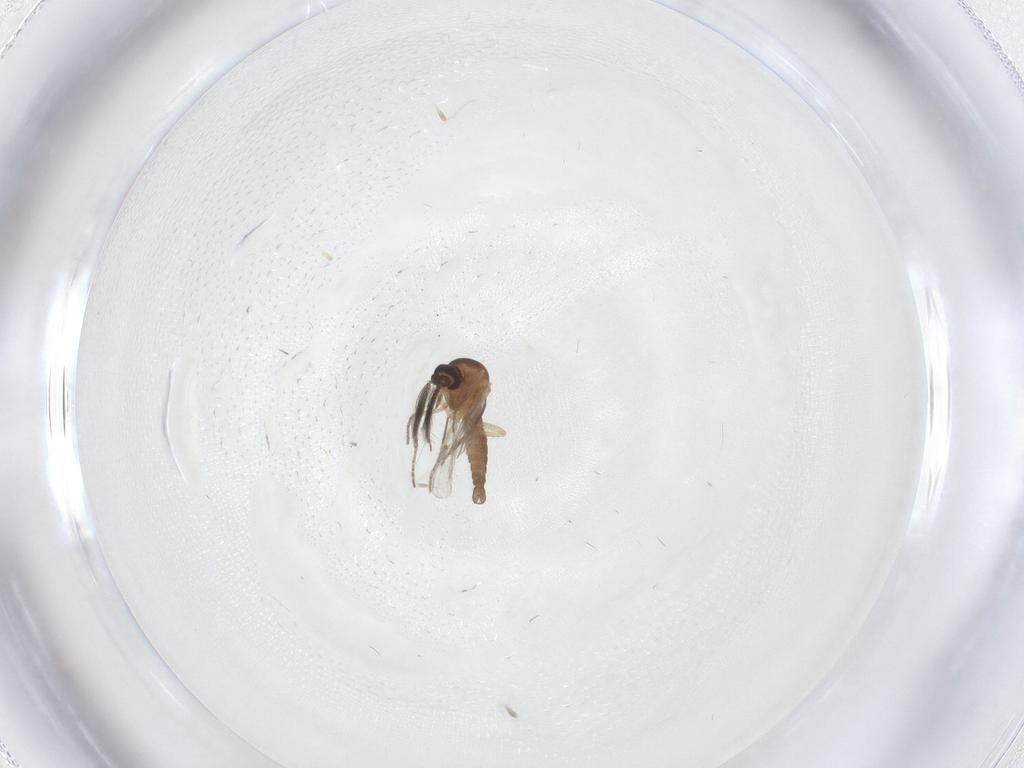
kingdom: Animalia
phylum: Arthropoda
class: Insecta
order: Diptera
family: Ceratopogonidae
